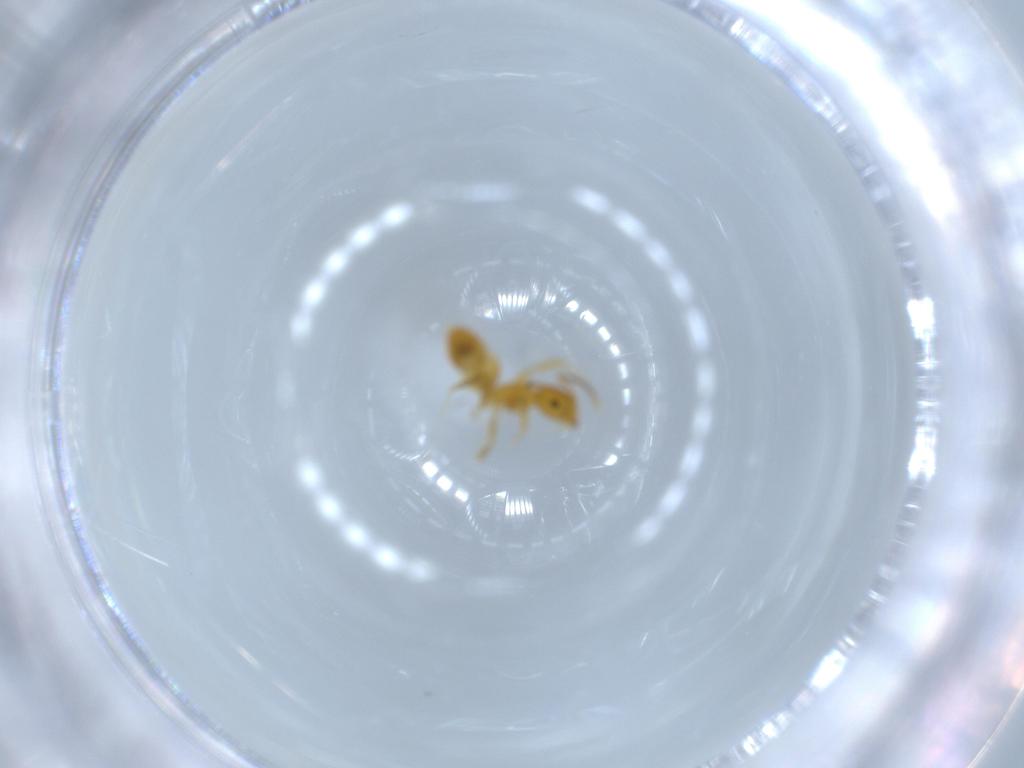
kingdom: Animalia
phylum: Arthropoda
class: Insecta
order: Hymenoptera
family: Formicidae
